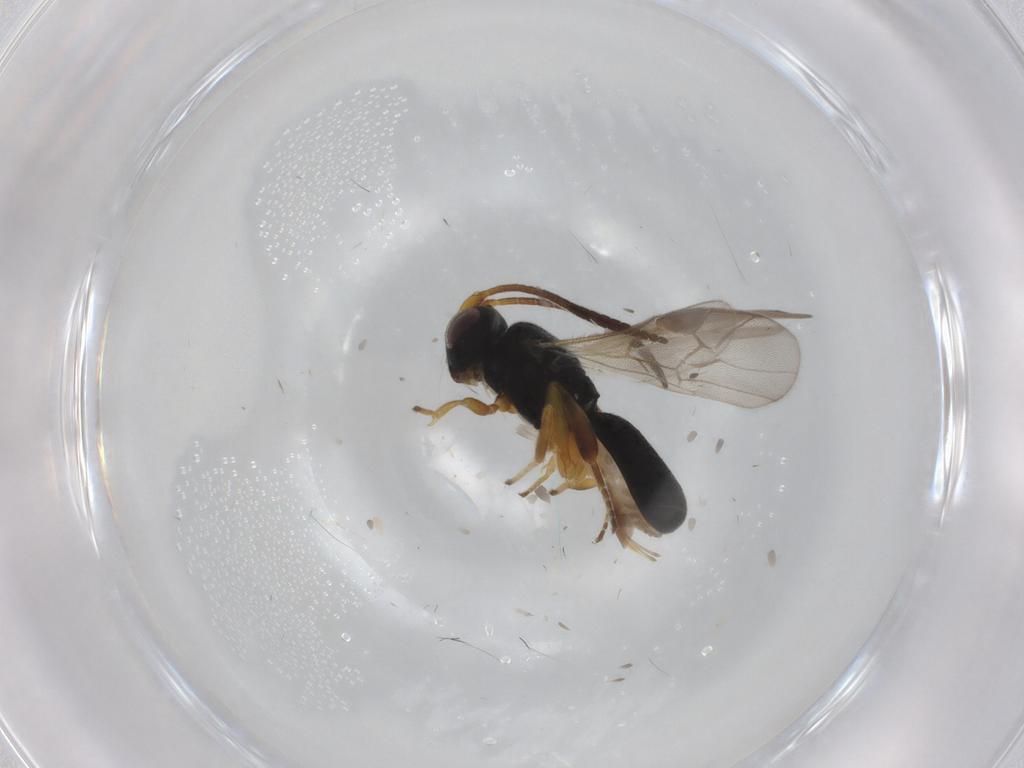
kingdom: Animalia
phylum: Arthropoda
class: Insecta
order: Hymenoptera
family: Braconidae
